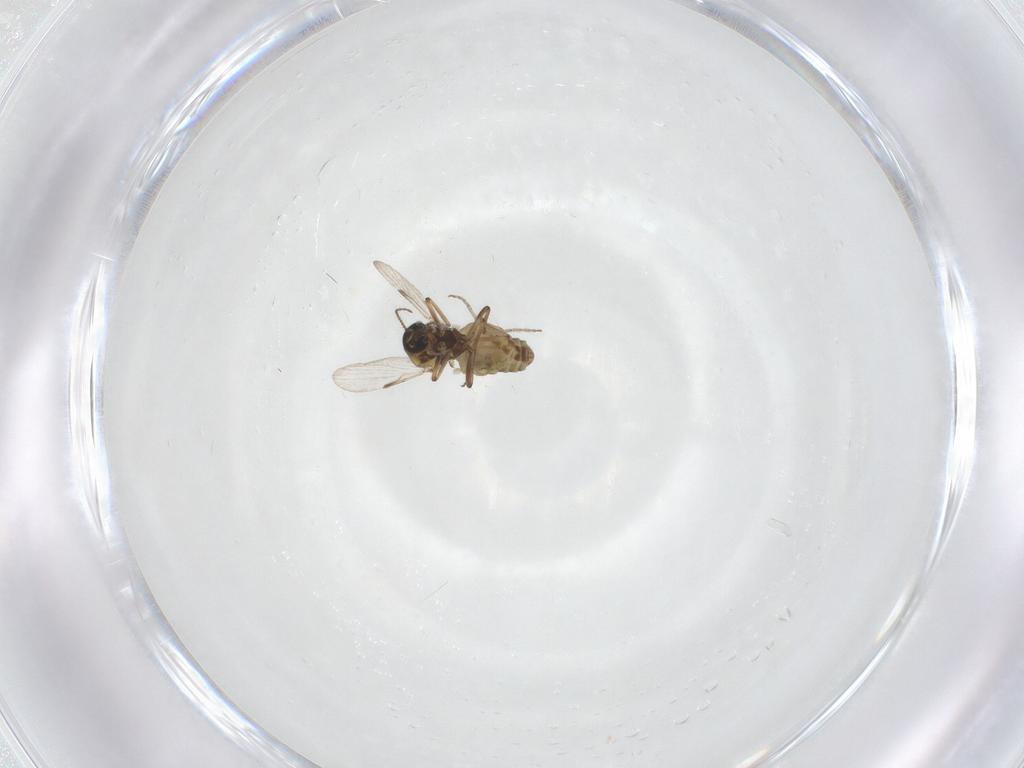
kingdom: Animalia
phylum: Arthropoda
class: Insecta
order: Diptera
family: Ceratopogonidae
